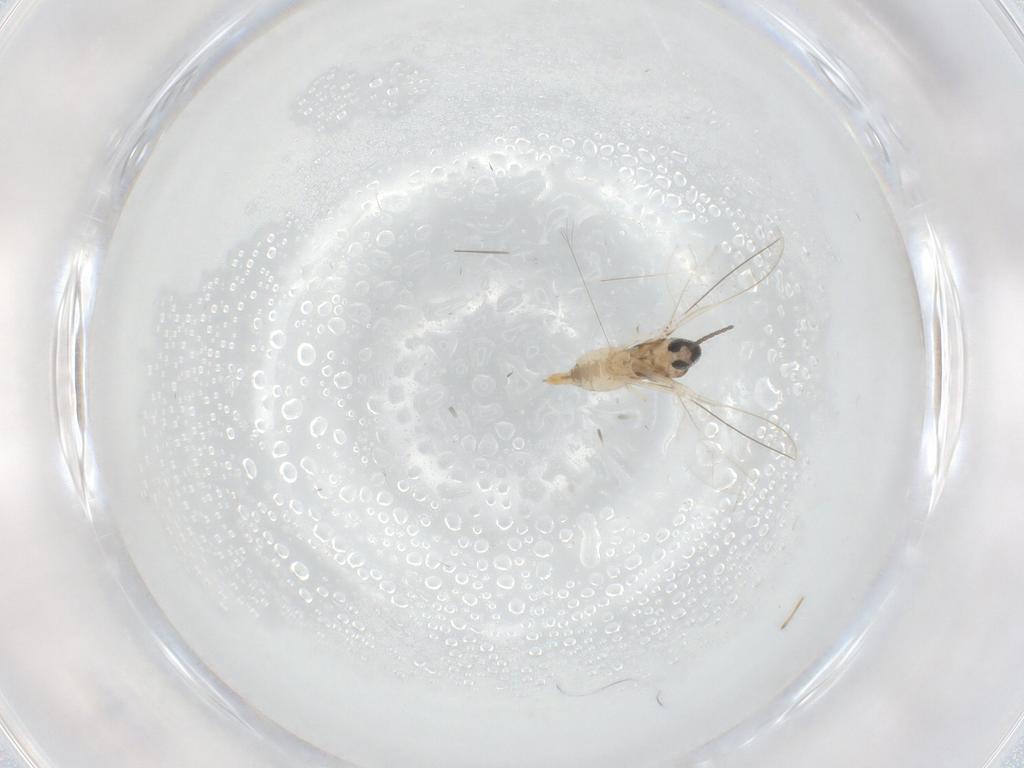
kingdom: Animalia
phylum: Arthropoda
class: Insecta
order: Diptera
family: Cecidomyiidae
